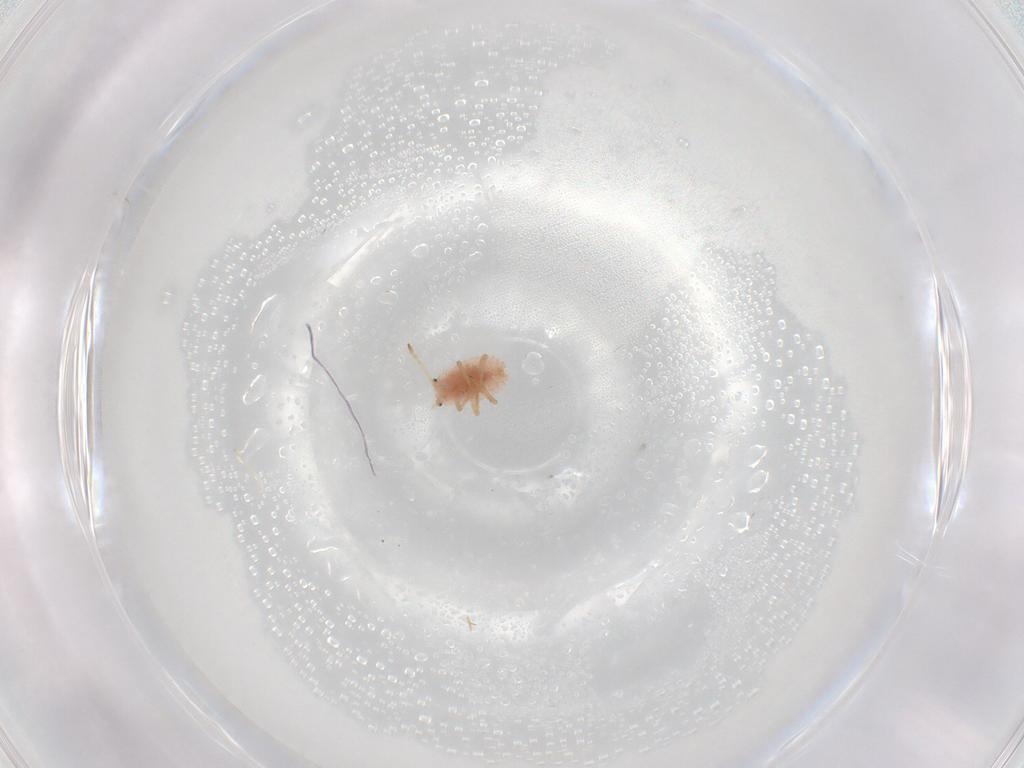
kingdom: Animalia
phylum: Arthropoda
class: Insecta
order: Hemiptera
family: Coccoidea_incertae_sedis
